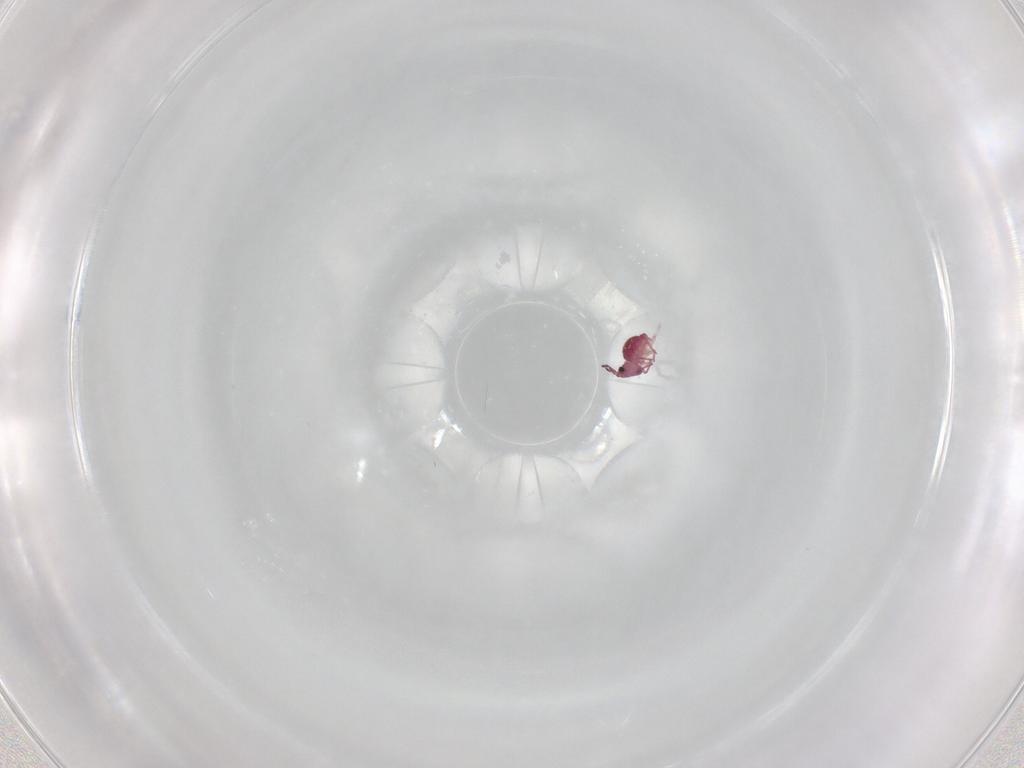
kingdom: Animalia
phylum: Arthropoda
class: Collembola
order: Symphypleona
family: Sminthurididae
